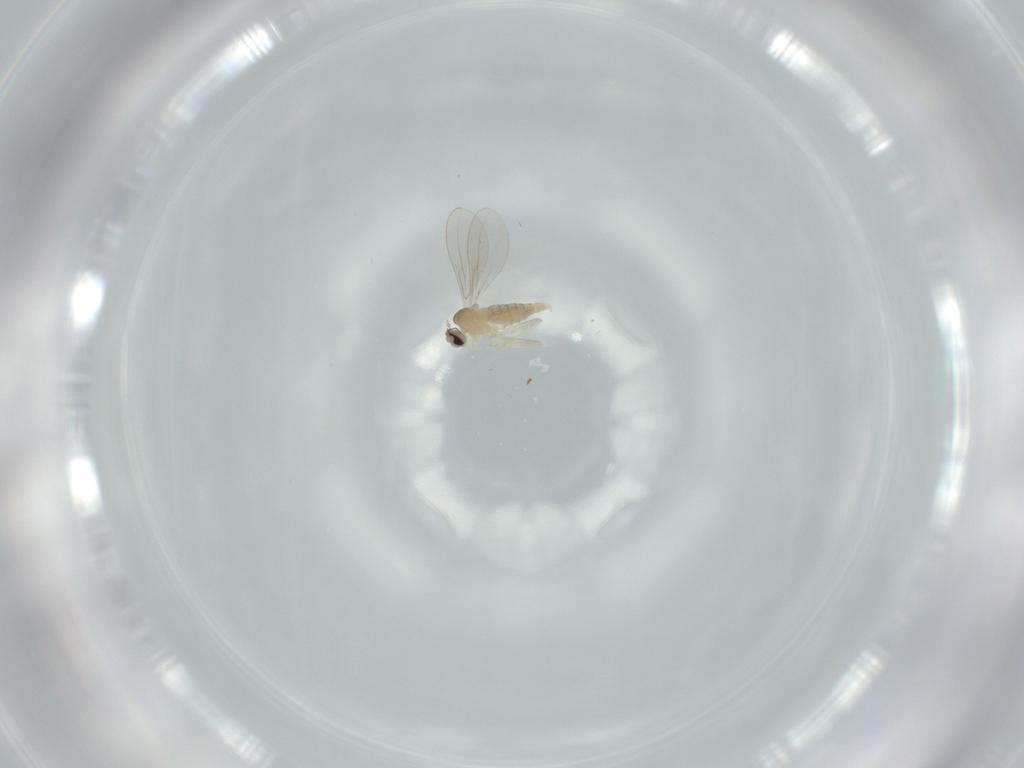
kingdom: Animalia
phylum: Arthropoda
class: Insecta
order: Diptera
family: Cecidomyiidae
